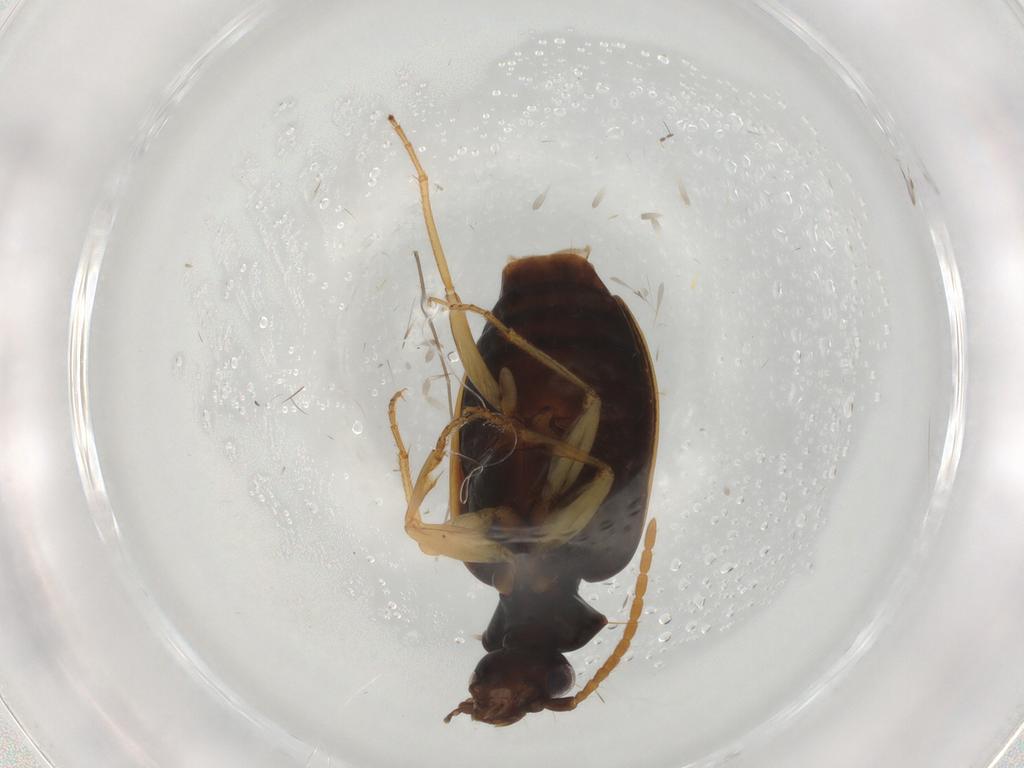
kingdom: Animalia
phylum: Arthropoda
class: Insecta
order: Coleoptera
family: Carabidae
